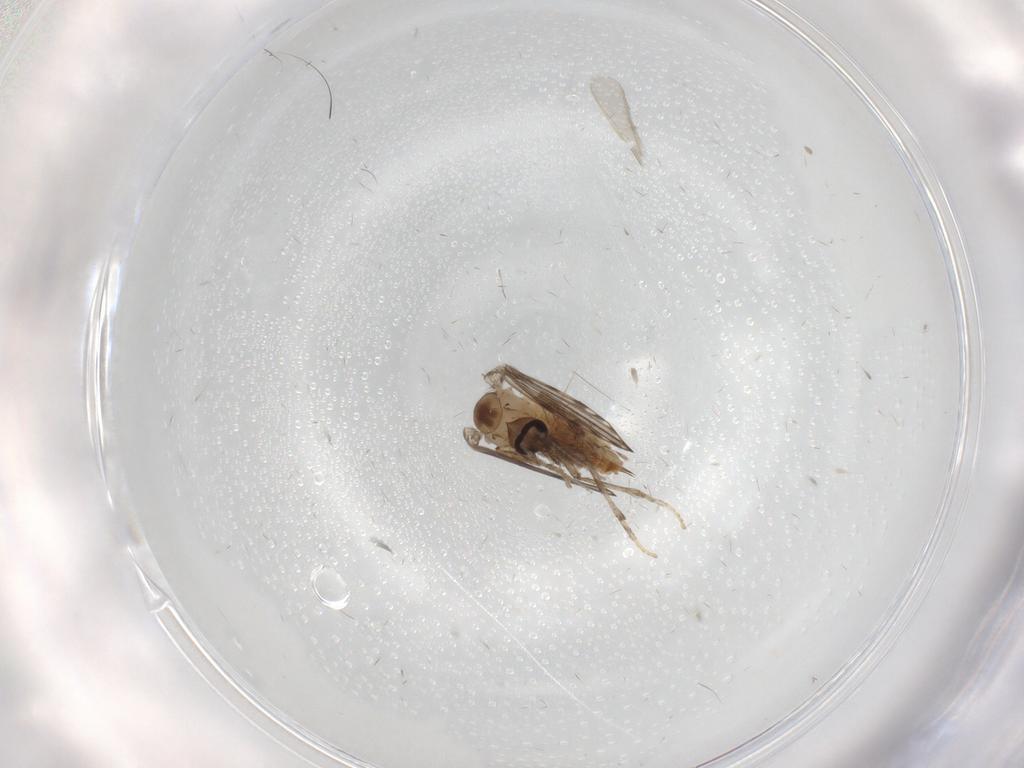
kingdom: Animalia
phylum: Arthropoda
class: Insecta
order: Diptera
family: Psychodidae
